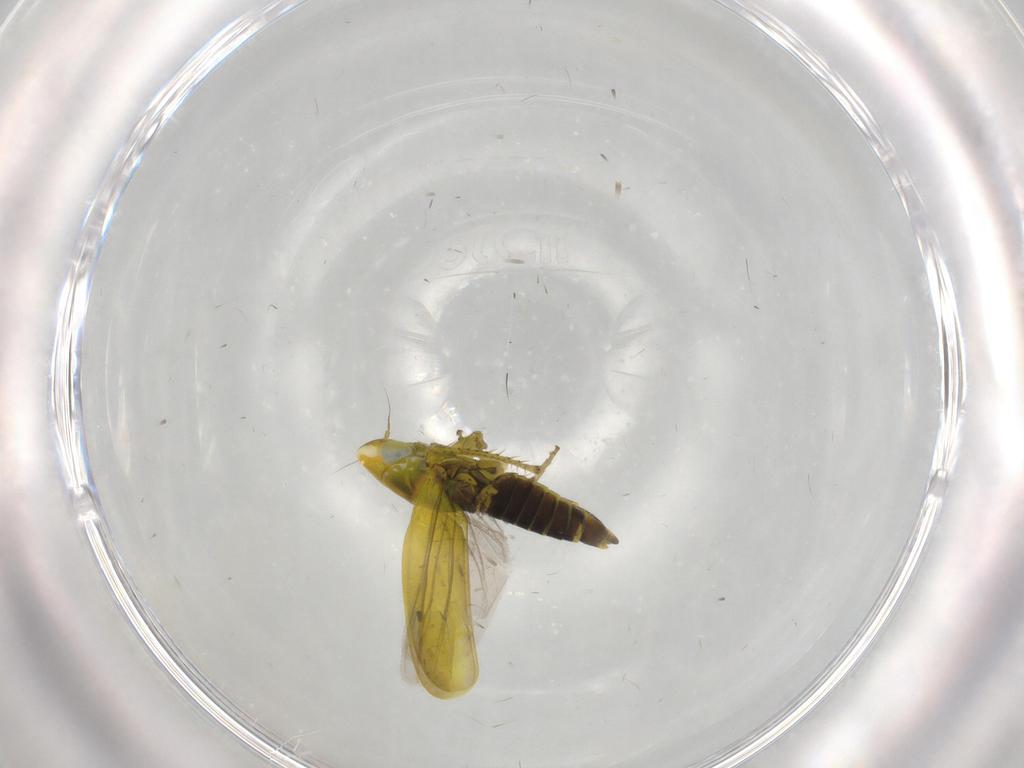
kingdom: Animalia
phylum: Arthropoda
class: Insecta
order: Hemiptera
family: Cicadellidae
